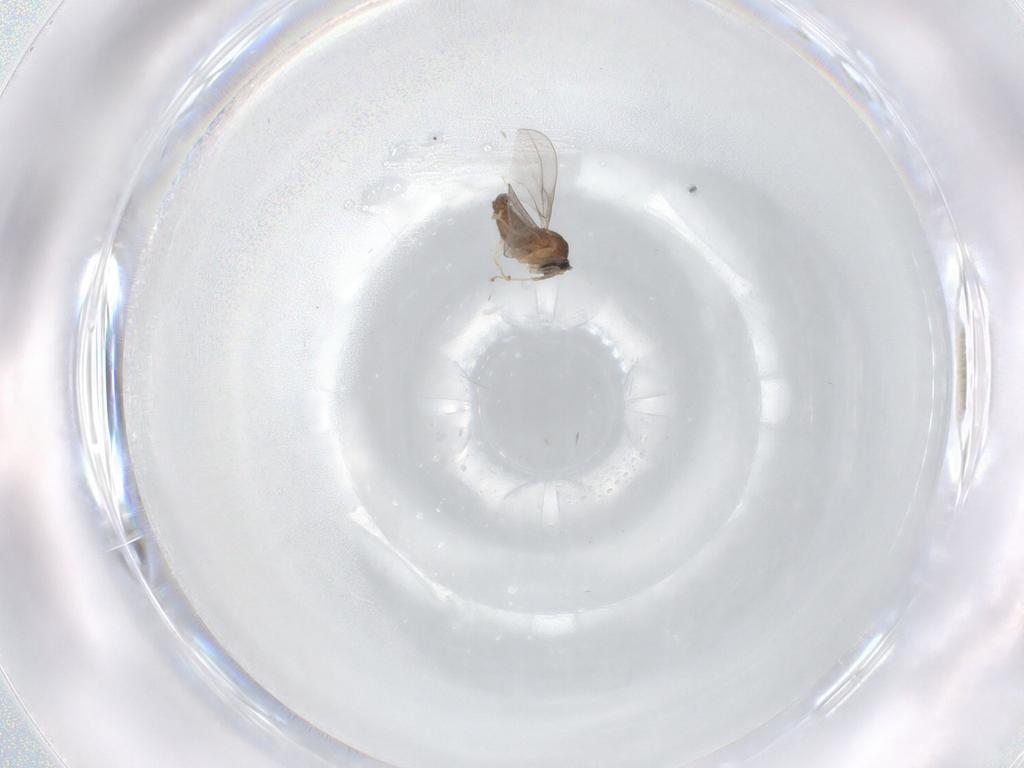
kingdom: Animalia
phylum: Arthropoda
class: Insecta
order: Diptera
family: Cecidomyiidae
